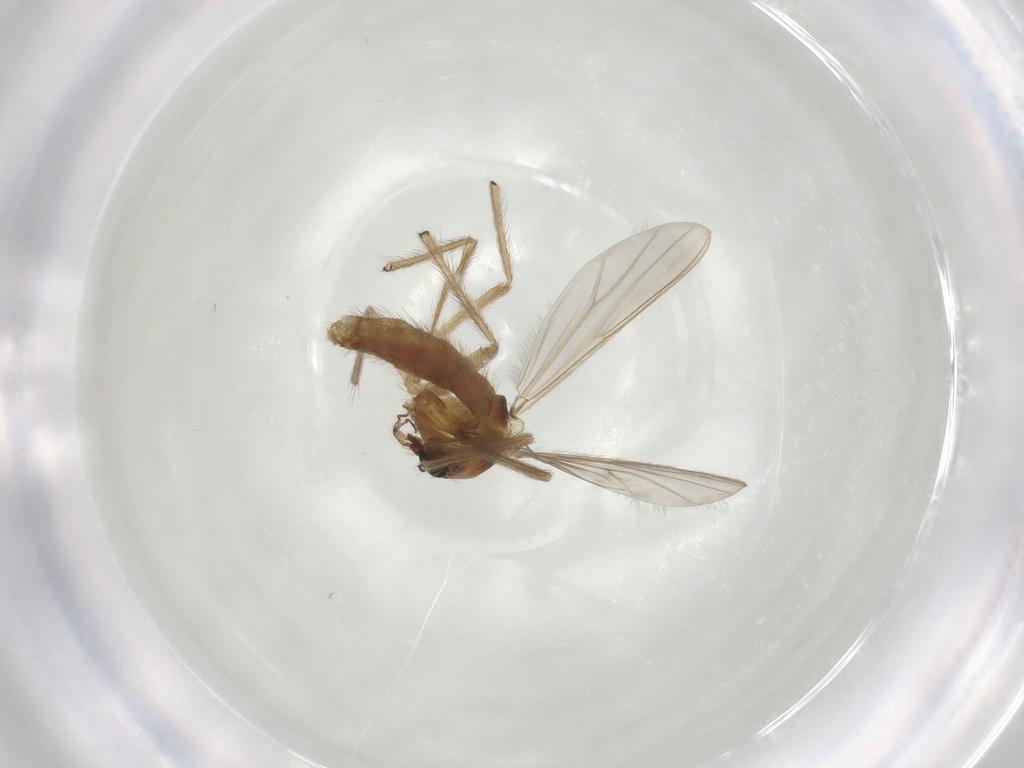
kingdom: Animalia
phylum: Arthropoda
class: Insecta
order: Diptera
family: Chironomidae
